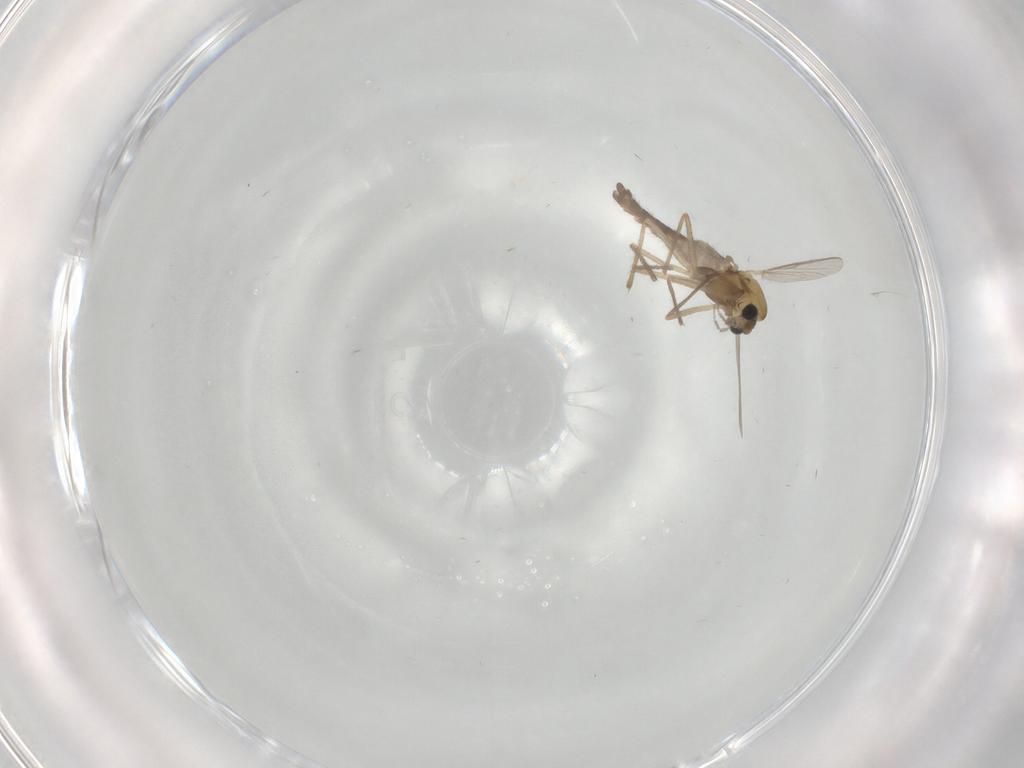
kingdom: Animalia
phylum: Arthropoda
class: Insecta
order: Diptera
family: Chironomidae
